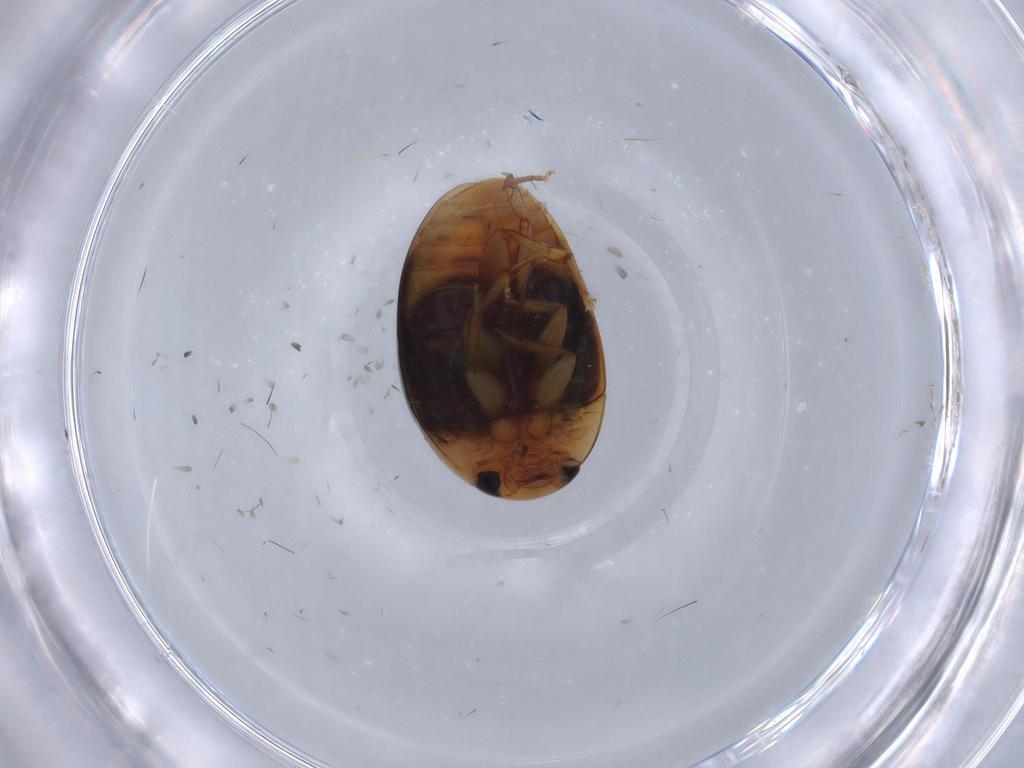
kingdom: Animalia
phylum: Arthropoda
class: Insecta
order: Coleoptera
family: Phalacridae
